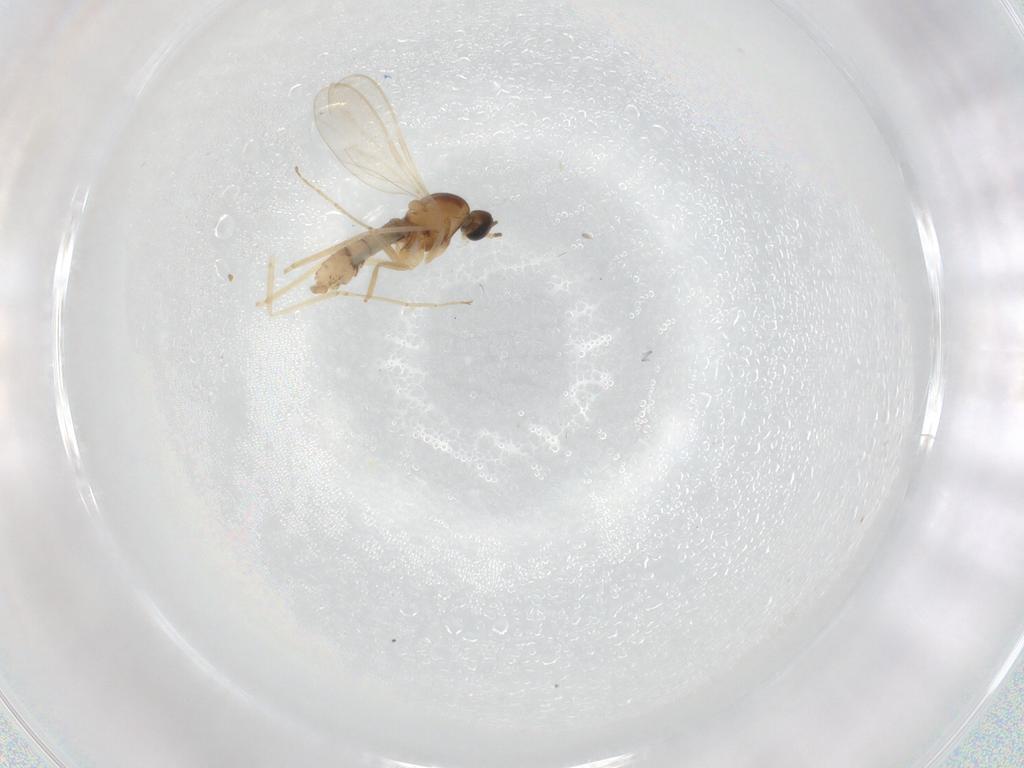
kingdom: Animalia
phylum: Arthropoda
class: Insecta
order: Diptera
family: Cecidomyiidae
